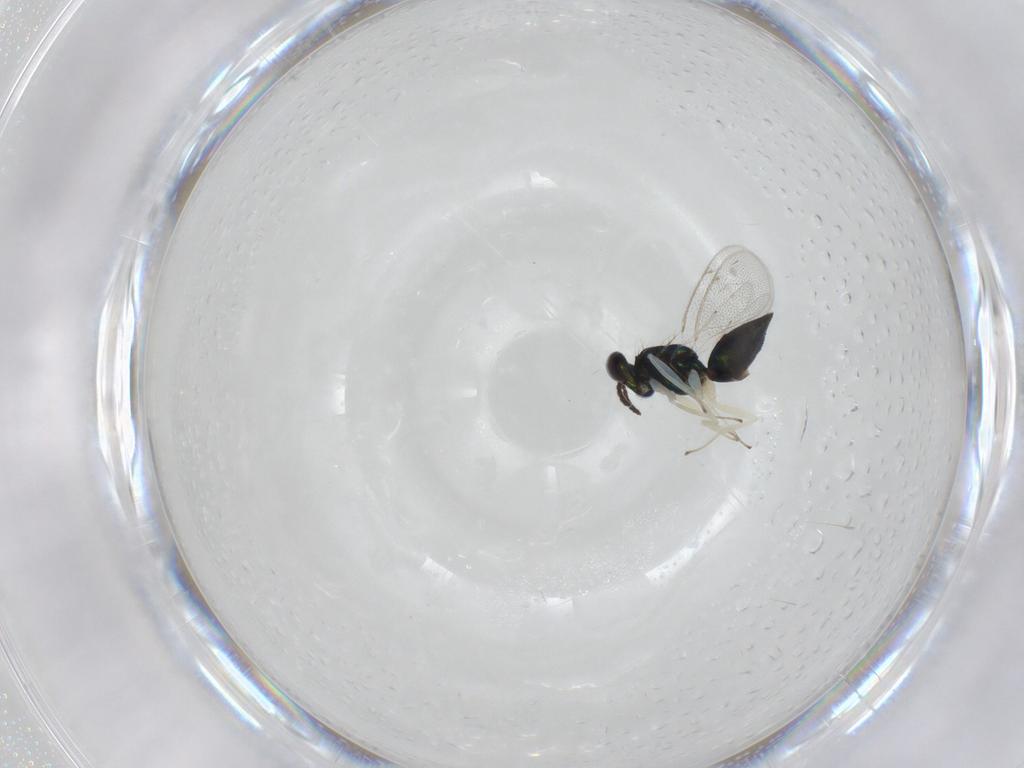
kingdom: Animalia
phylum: Arthropoda
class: Insecta
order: Hymenoptera
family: Eulophidae
